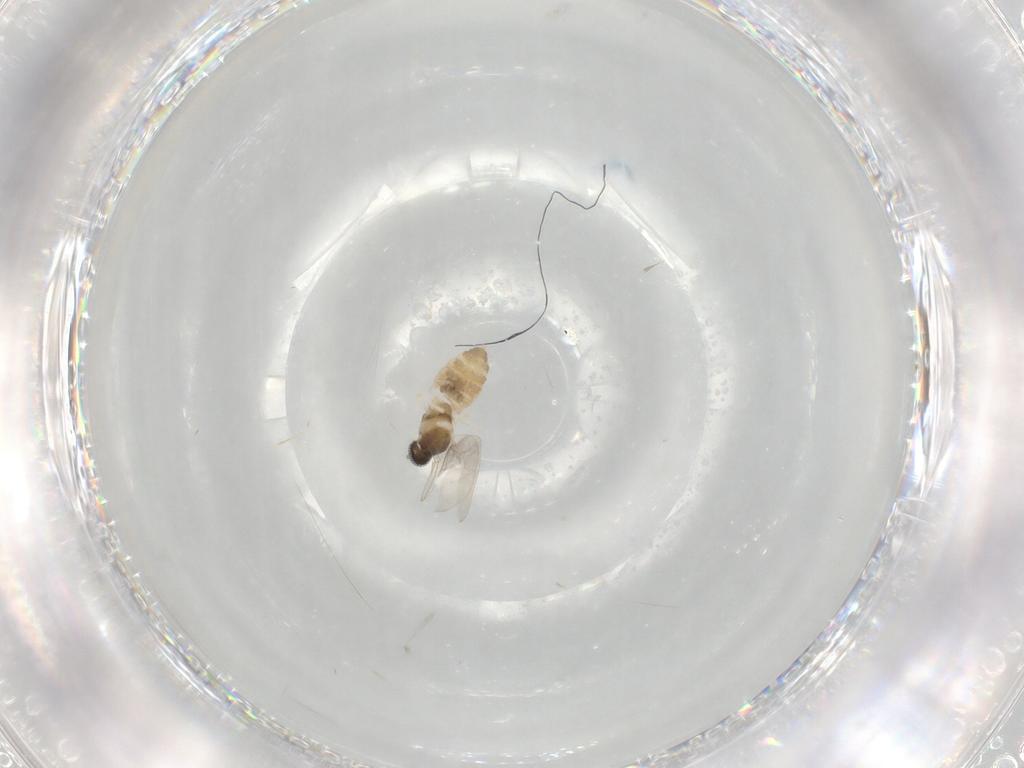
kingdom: Animalia
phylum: Arthropoda
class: Insecta
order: Diptera
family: Cecidomyiidae
